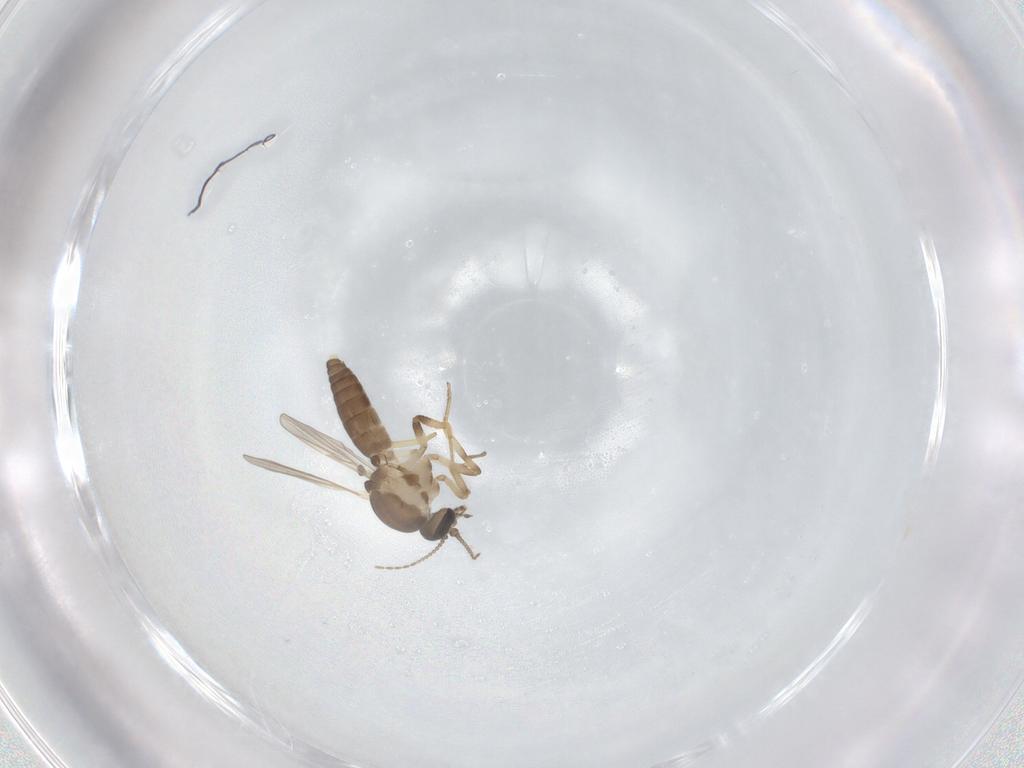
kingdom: Animalia
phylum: Arthropoda
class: Insecta
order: Diptera
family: Ceratopogonidae
